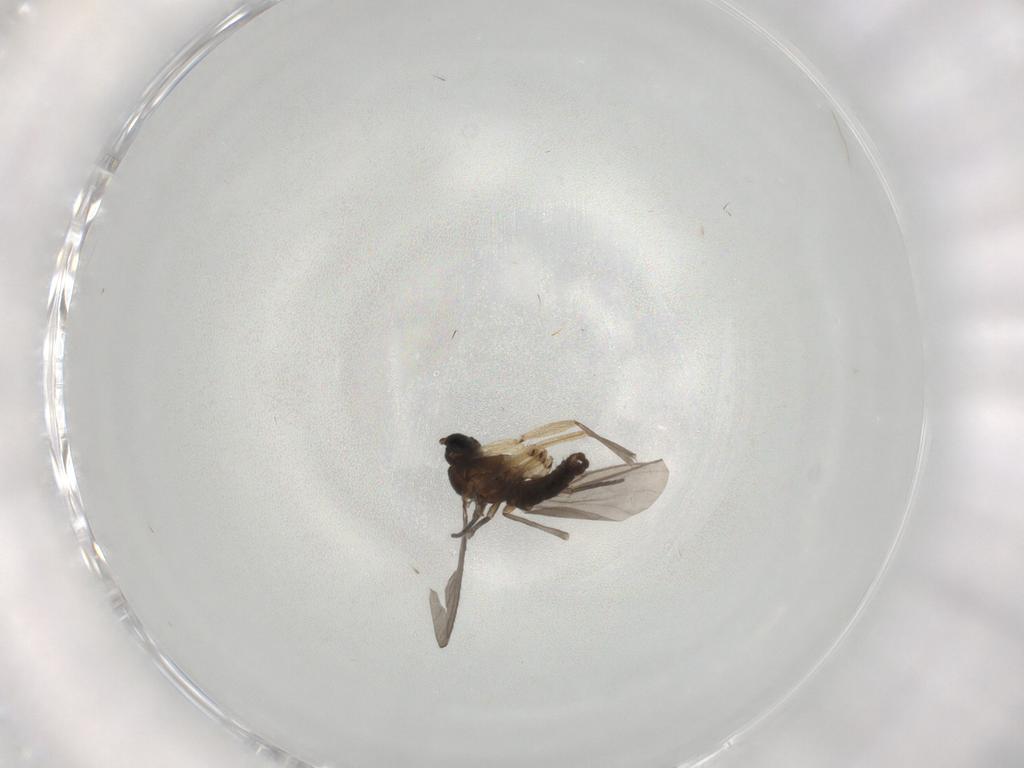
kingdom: Animalia
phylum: Arthropoda
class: Insecta
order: Diptera
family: Sciaridae
